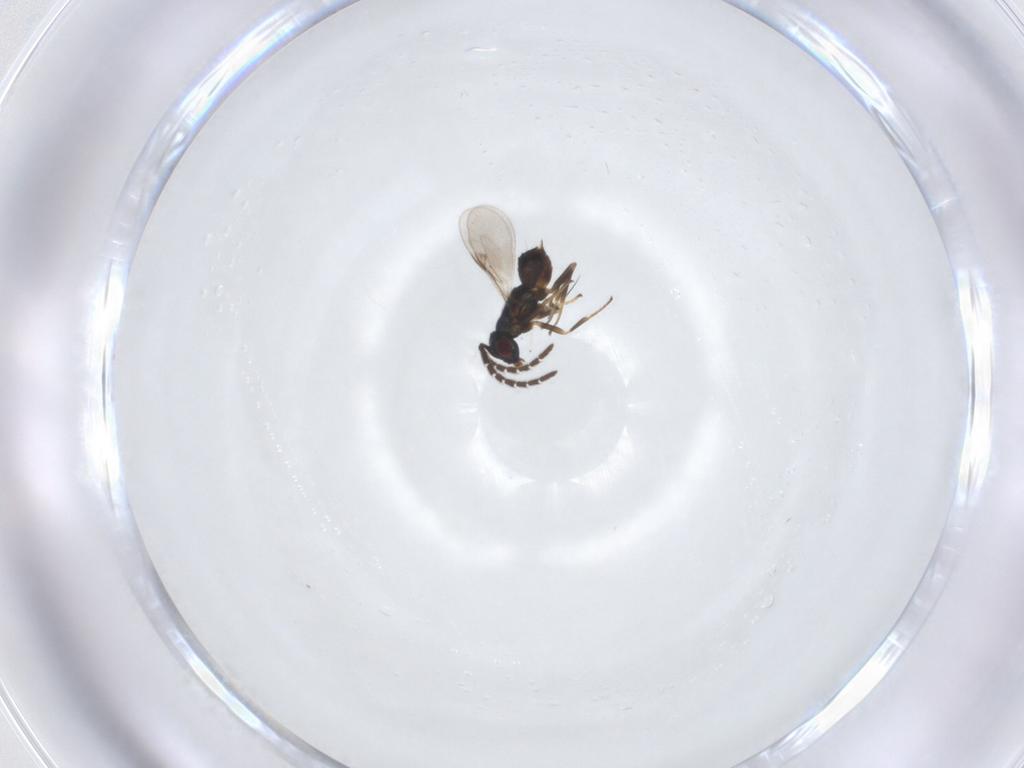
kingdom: Animalia
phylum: Arthropoda
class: Insecta
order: Hymenoptera
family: Encyrtidae
